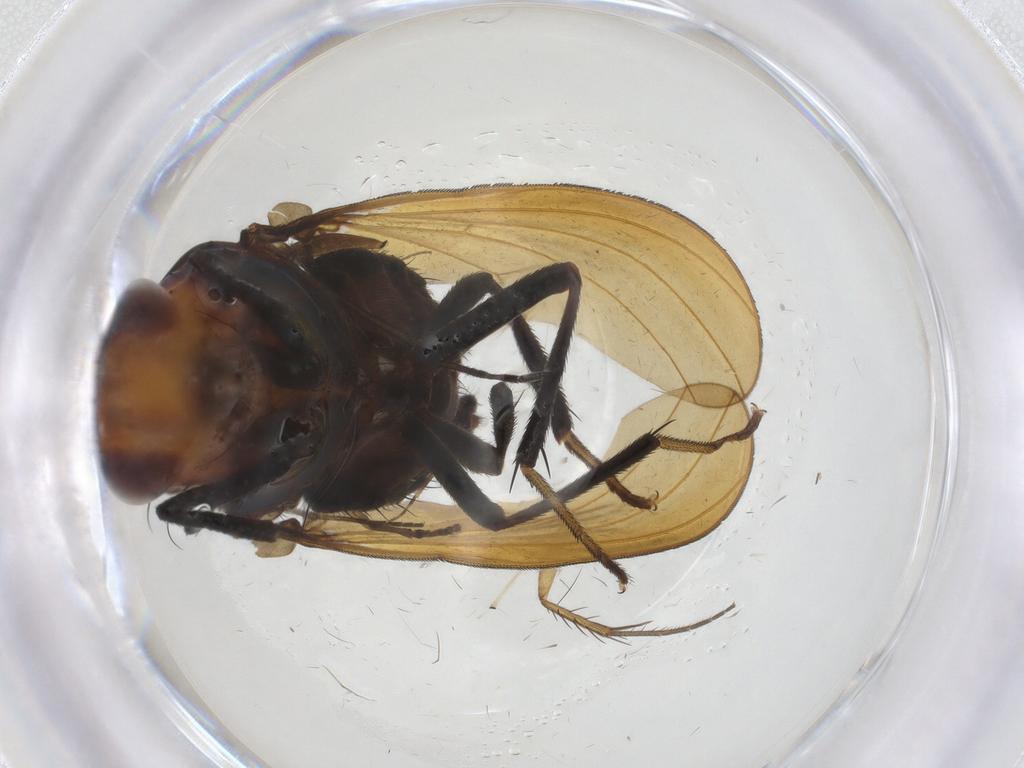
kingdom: Animalia
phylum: Arthropoda
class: Insecta
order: Diptera
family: Psychodidae
